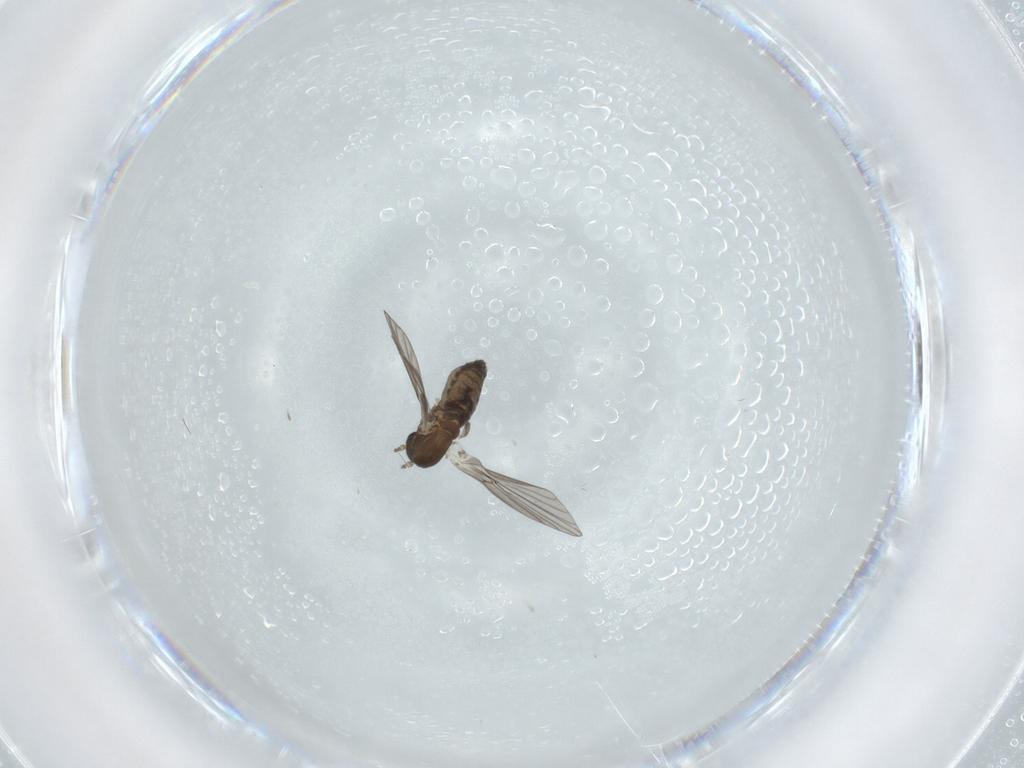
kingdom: Animalia
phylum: Arthropoda
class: Insecta
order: Diptera
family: Phoridae
